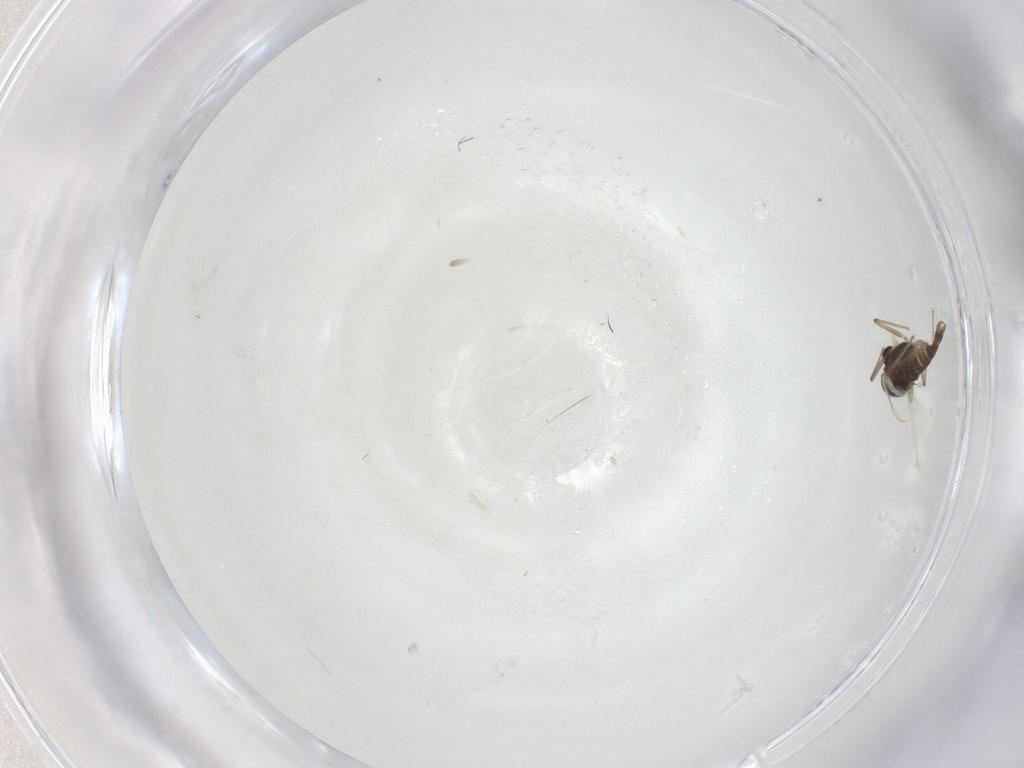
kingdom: Animalia
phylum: Arthropoda
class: Insecta
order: Diptera
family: Chironomidae
